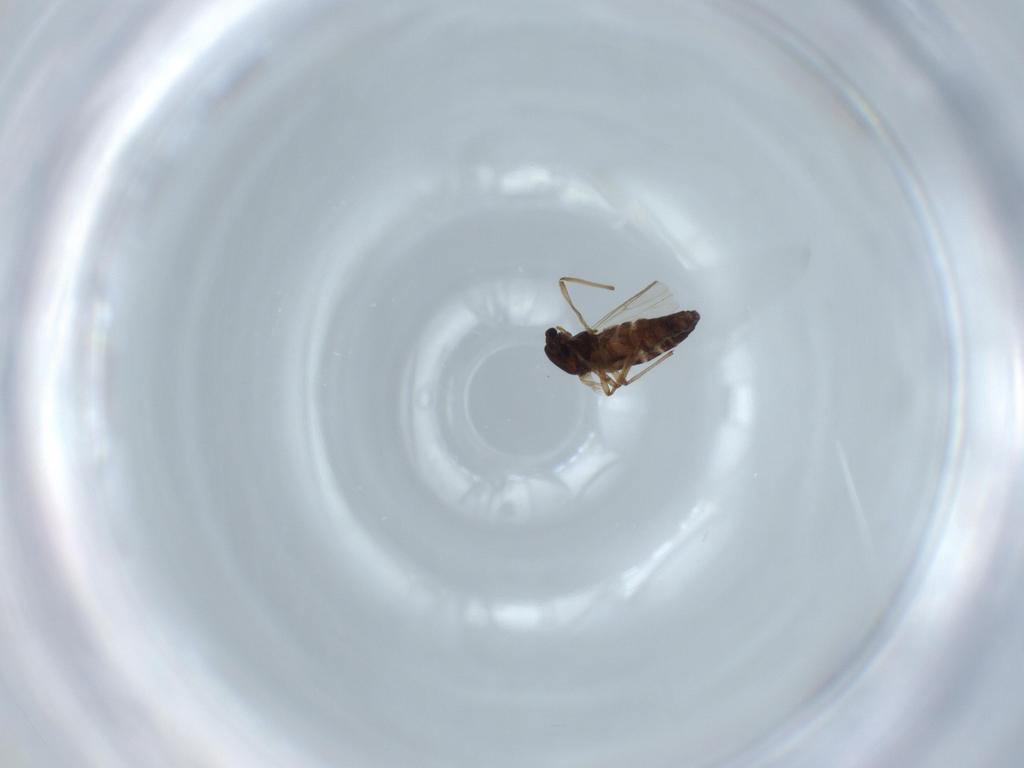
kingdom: Animalia
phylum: Arthropoda
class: Insecta
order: Diptera
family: Chironomidae
